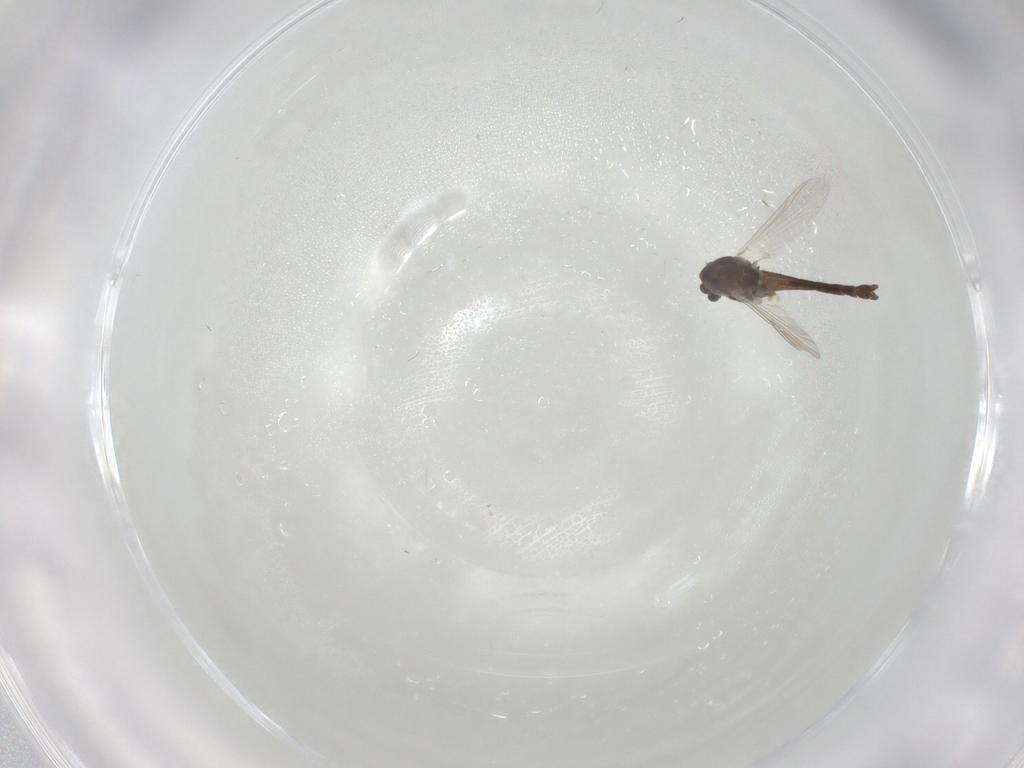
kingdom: Animalia
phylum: Arthropoda
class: Insecta
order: Diptera
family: Chironomidae
